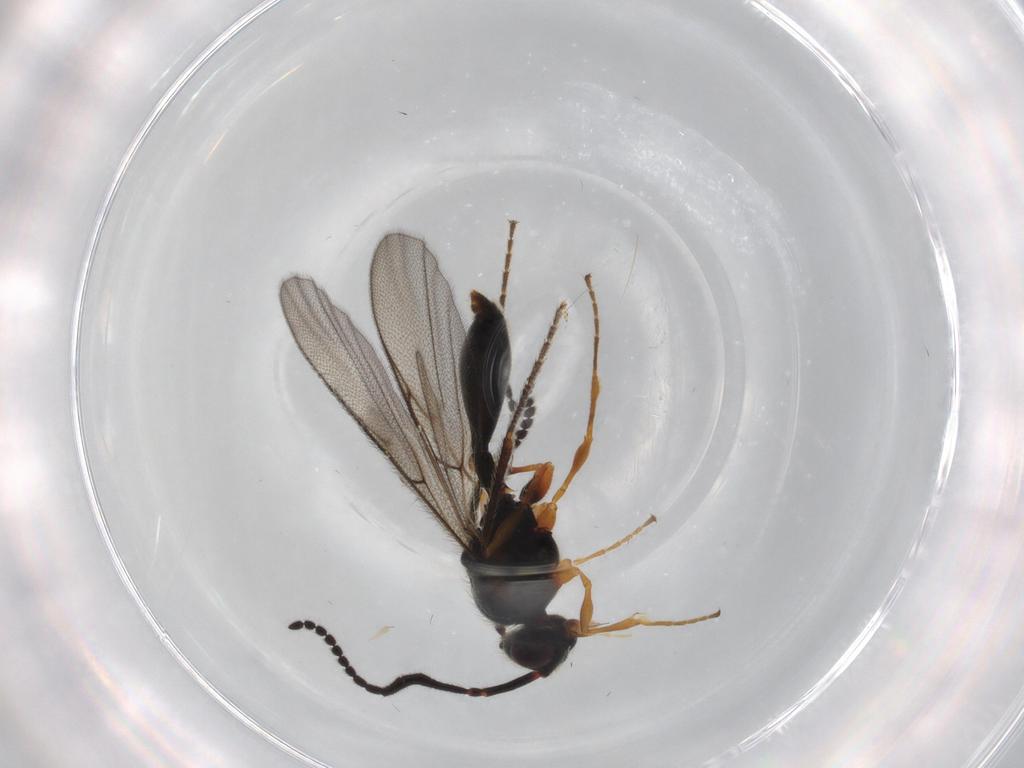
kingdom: Animalia
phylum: Arthropoda
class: Insecta
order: Hymenoptera
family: Diapriidae
